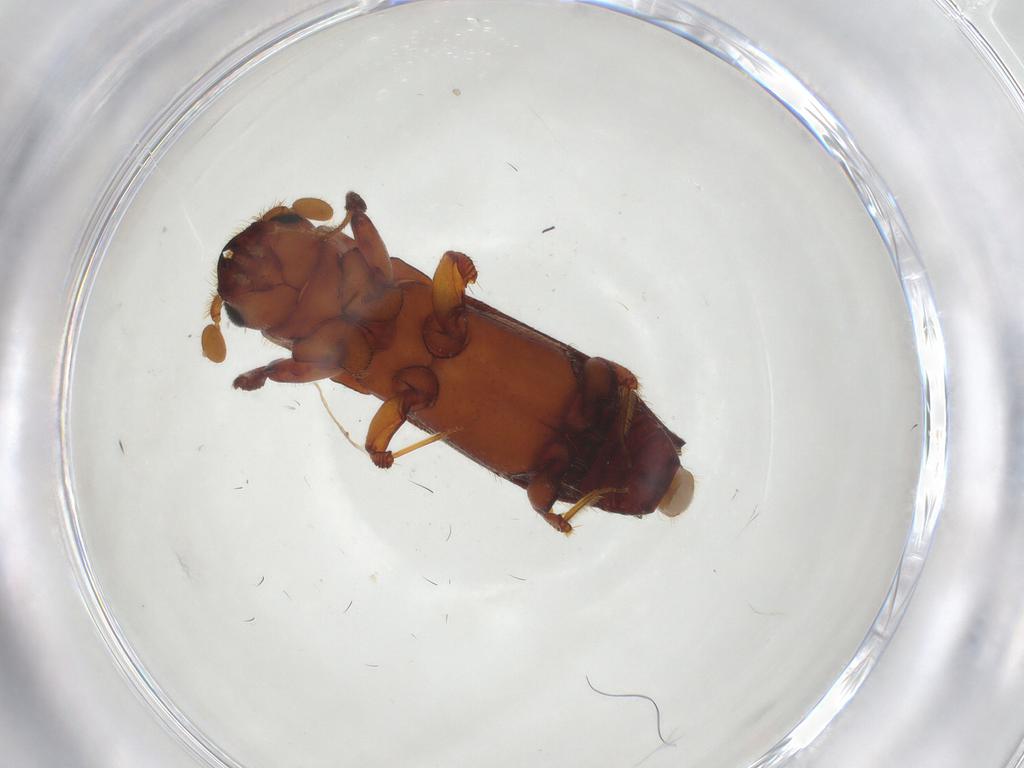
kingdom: Animalia
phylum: Arthropoda
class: Insecta
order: Coleoptera
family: Curculionidae
